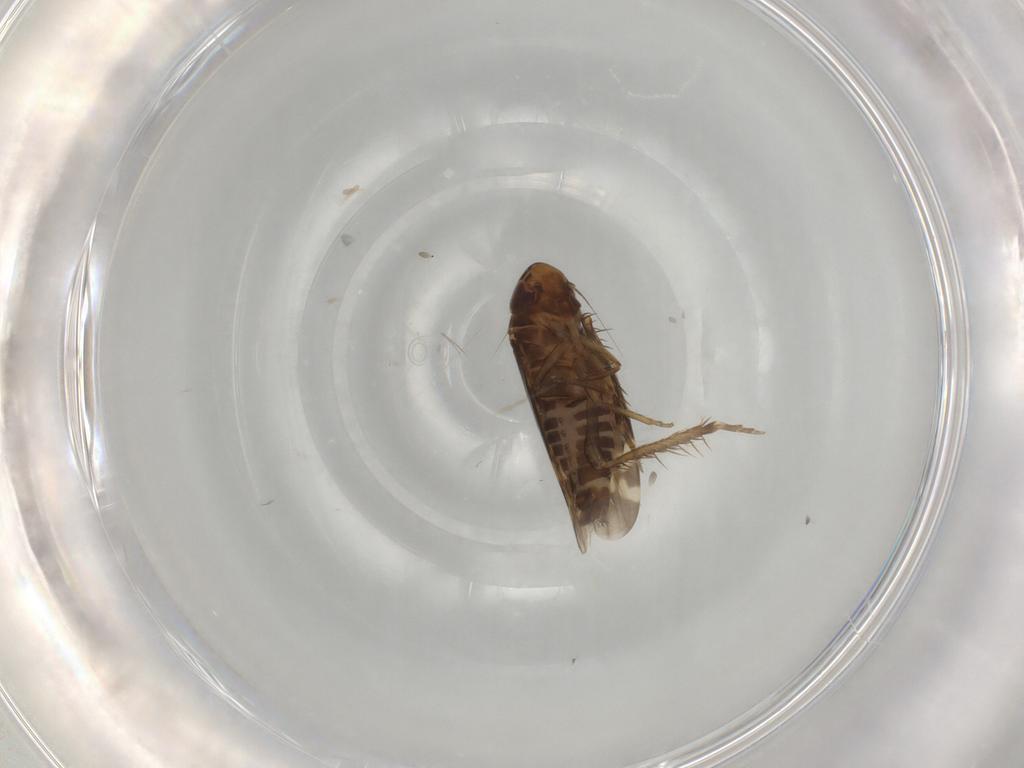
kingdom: Animalia
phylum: Arthropoda
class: Insecta
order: Hemiptera
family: Cicadellidae
